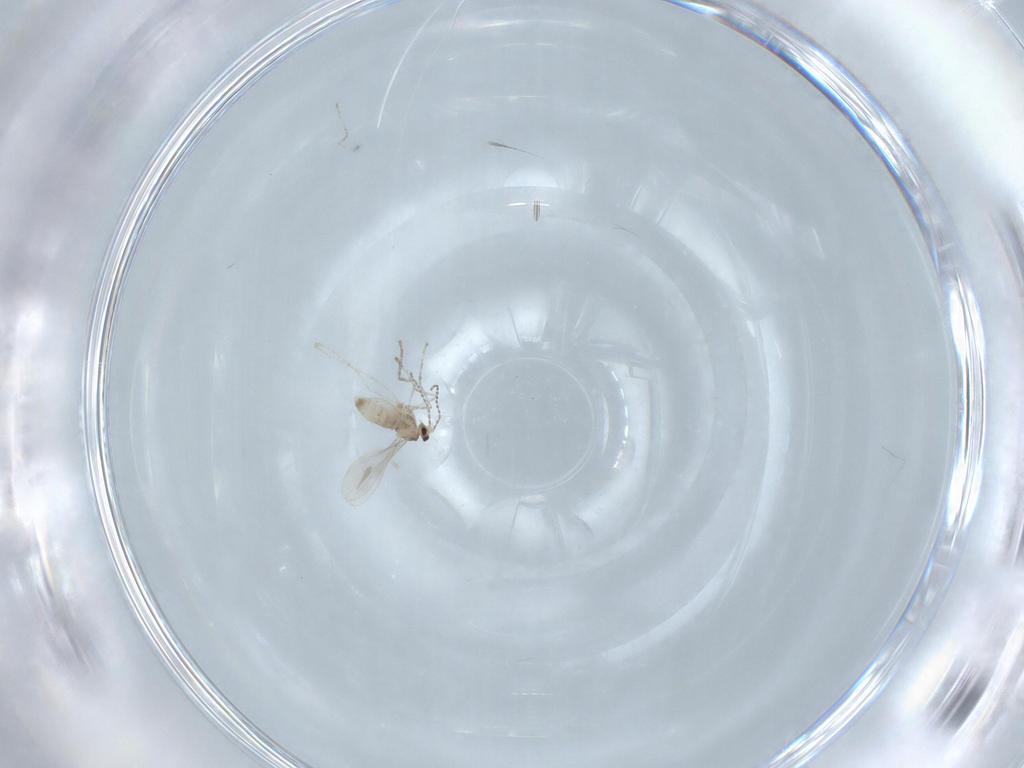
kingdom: Animalia
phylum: Arthropoda
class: Insecta
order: Diptera
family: Cecidomyiidae
